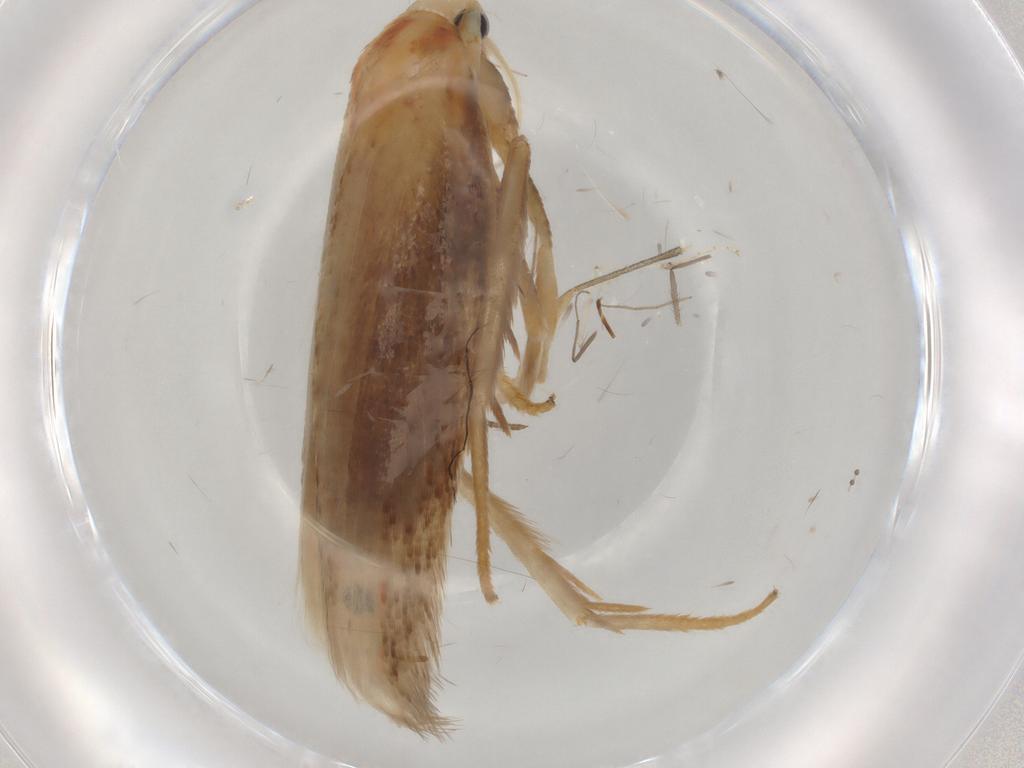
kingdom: Animalia
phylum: Arthropoda
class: Insecta
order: Lepidoptera
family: Geometridae
